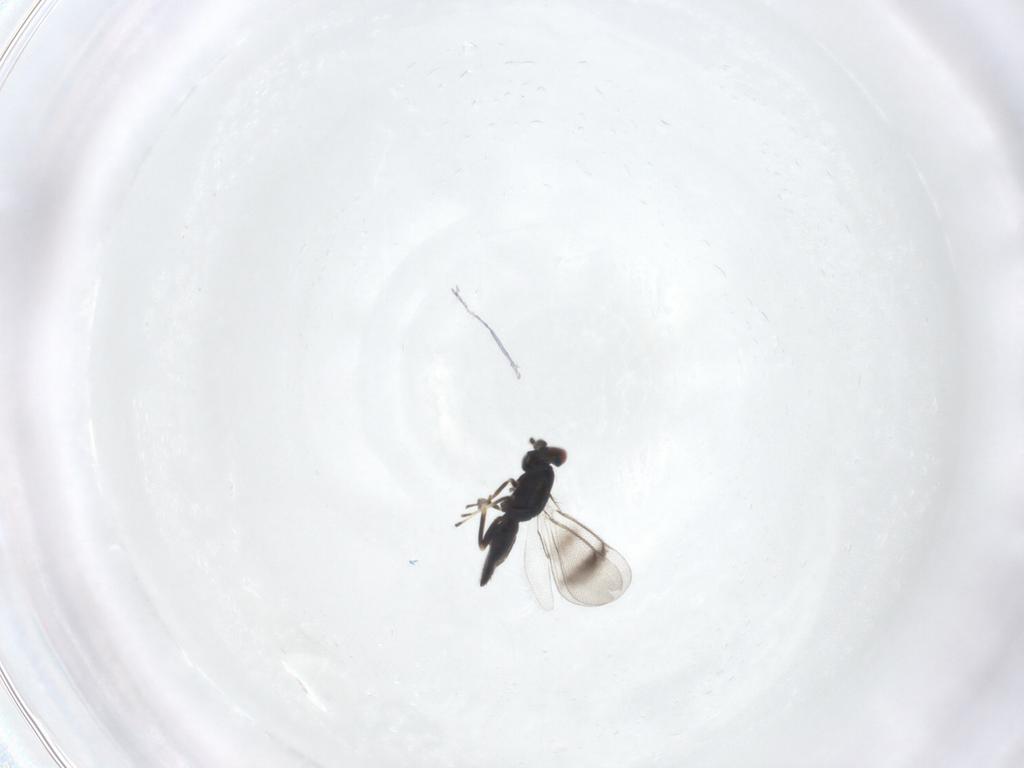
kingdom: Animalia
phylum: Arthropoda
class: Insecta
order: Hymenoptera
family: Eulophidae
